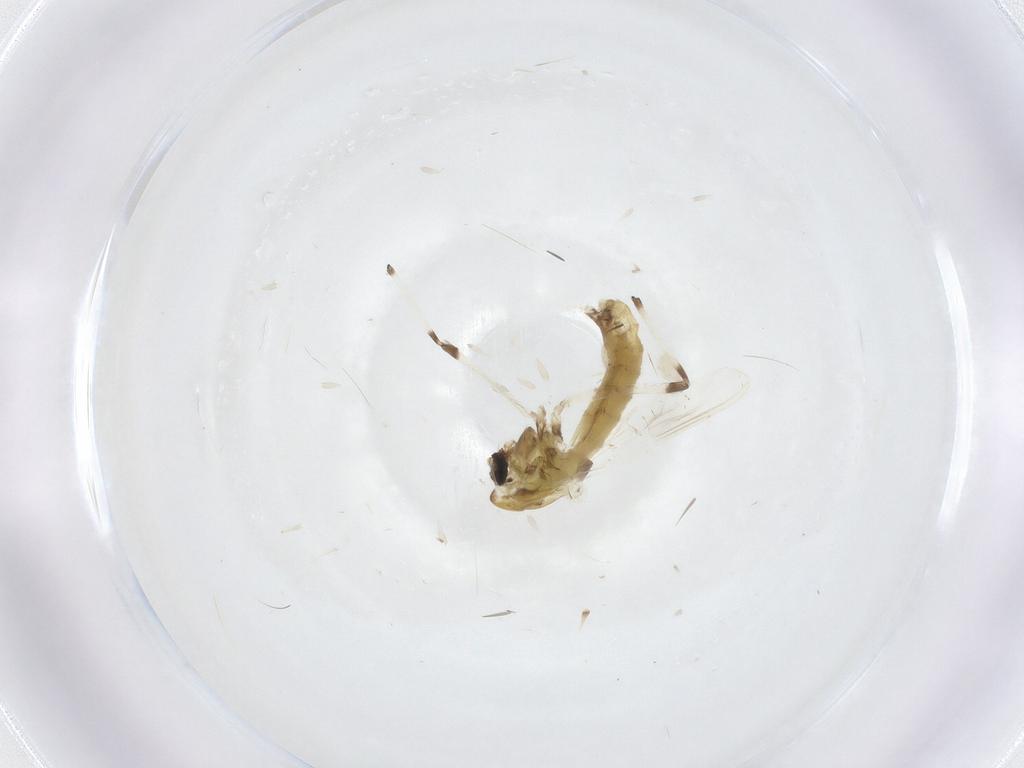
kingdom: Animalia
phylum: Arthropoda
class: Insecta
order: Diptera
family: Chironomidae
